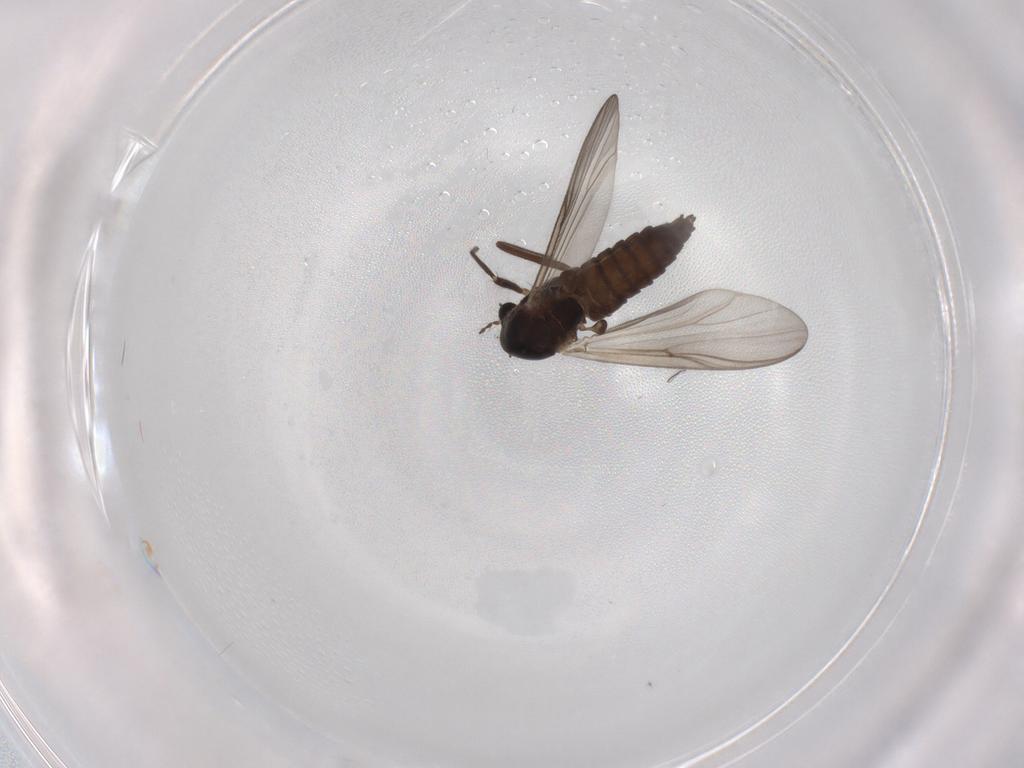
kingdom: Animalia
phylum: Arthropoda
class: Insecta
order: Diptera
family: Chironomidae
